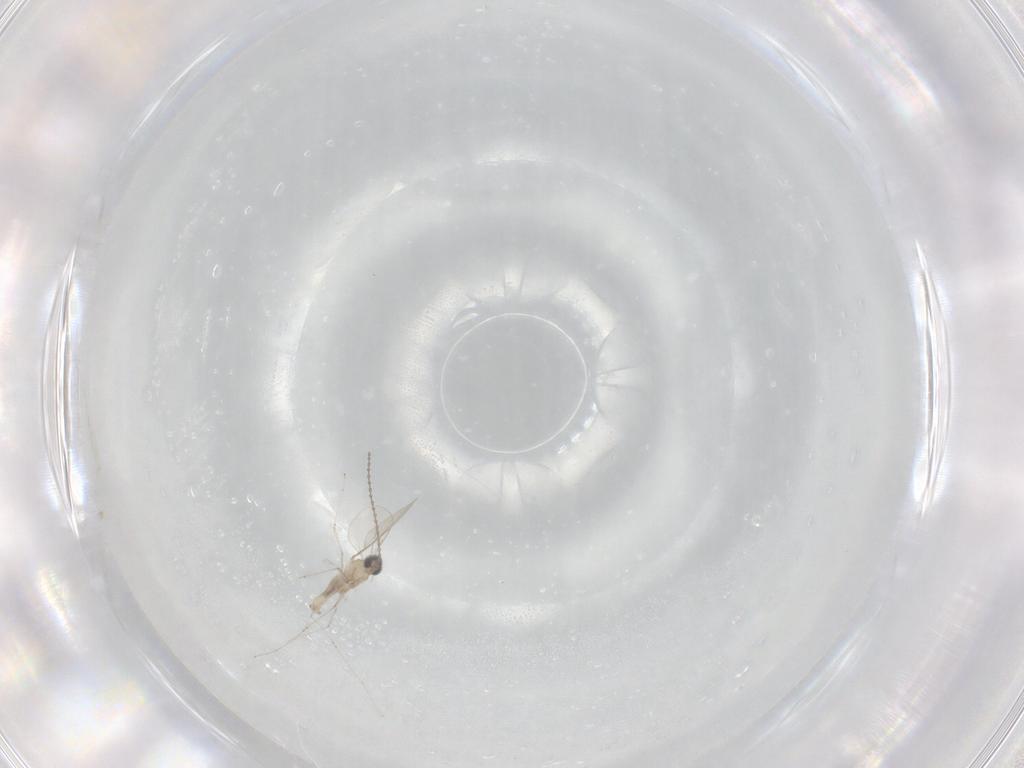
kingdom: Animalia
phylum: Arthropoda
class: Insecta
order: Diptera
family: Cecidomyiidae
